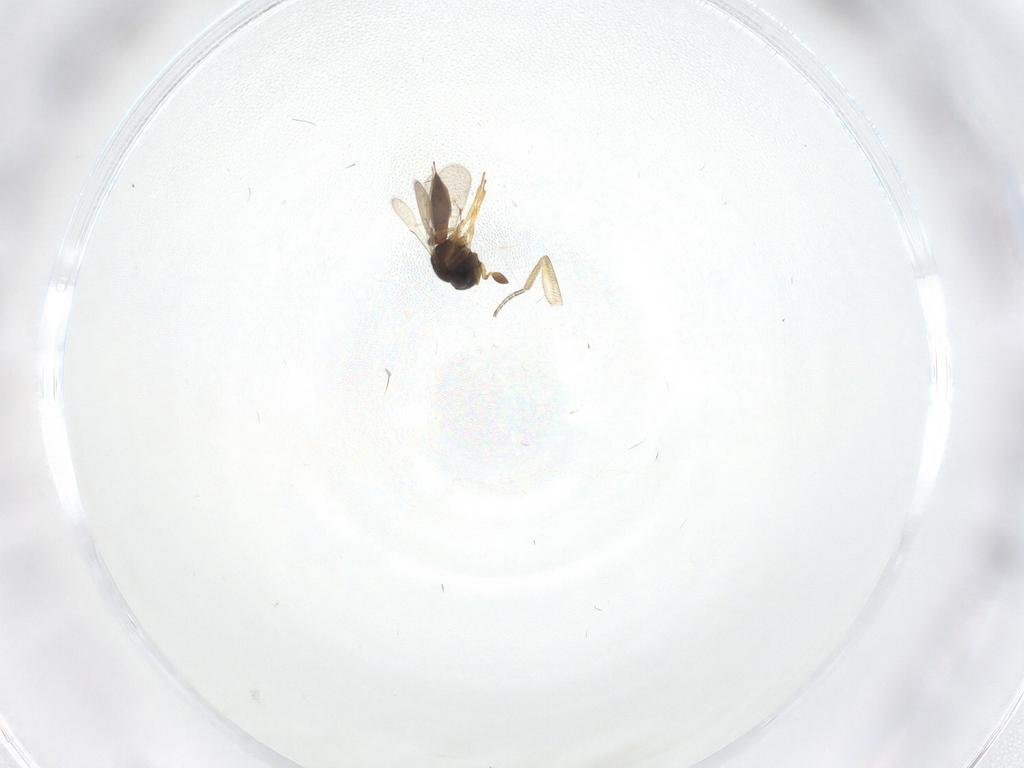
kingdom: Animalia
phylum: Arthropoda
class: Insecta
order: Hymenoptera
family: Scelionidae
